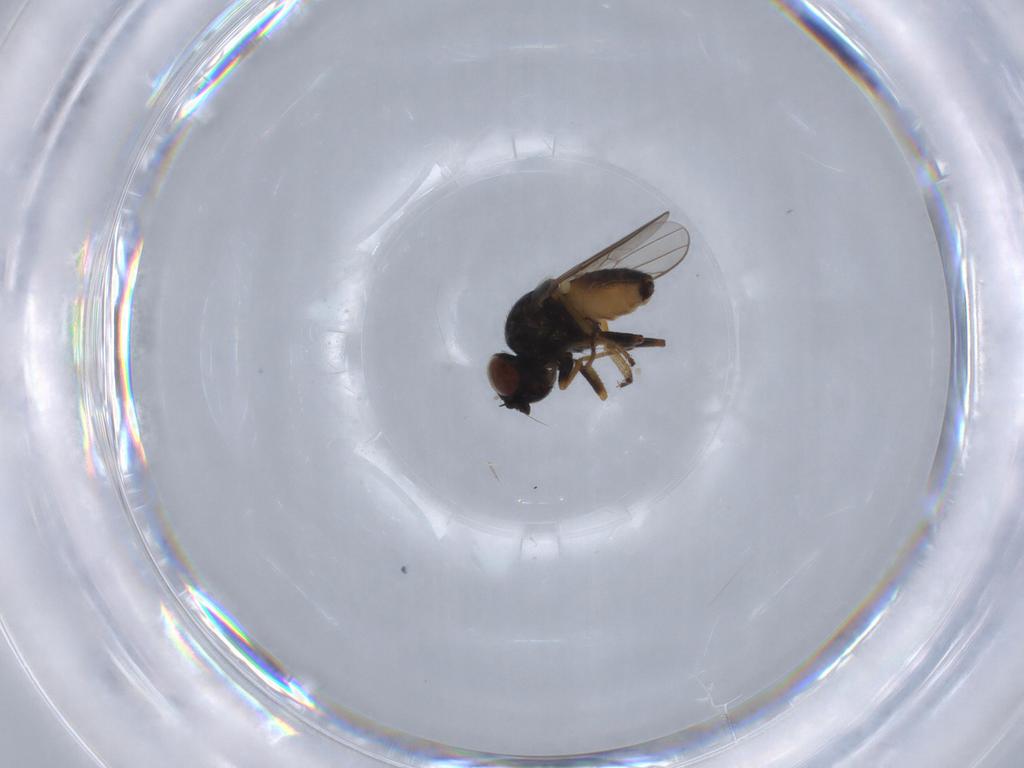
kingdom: Animalia
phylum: Arthropoda
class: Insecta
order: Diptera
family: Chloropidae
